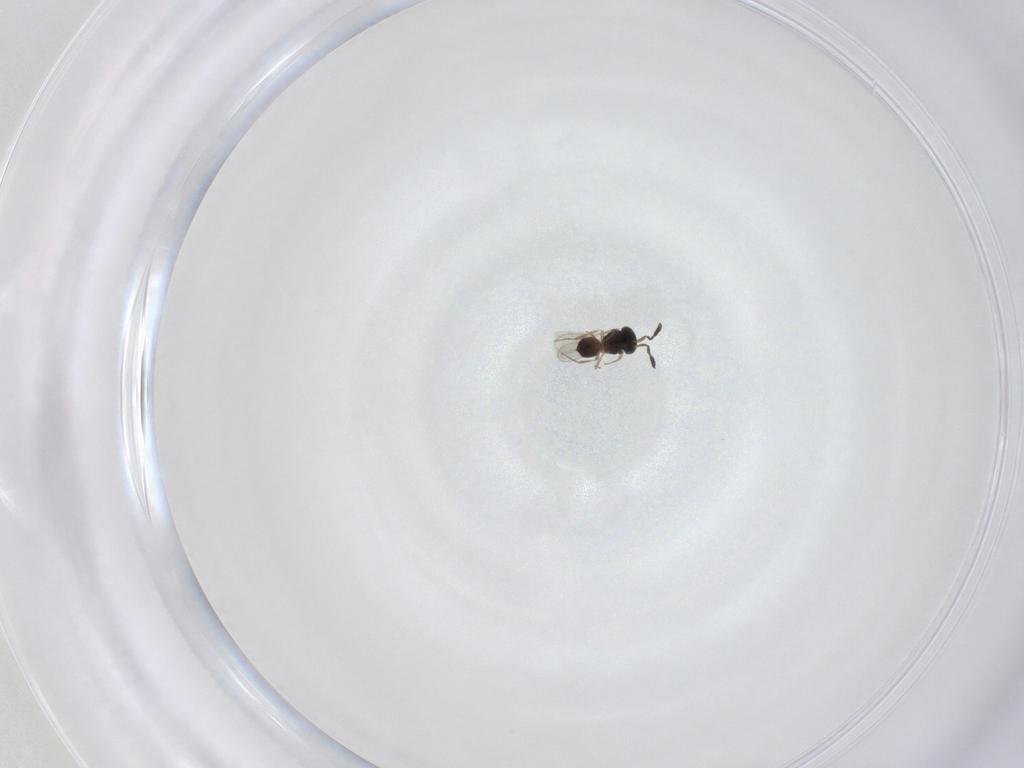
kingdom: Animalia
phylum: Arthropoda
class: Insecta
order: Hymenoptera
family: Scelionidae
